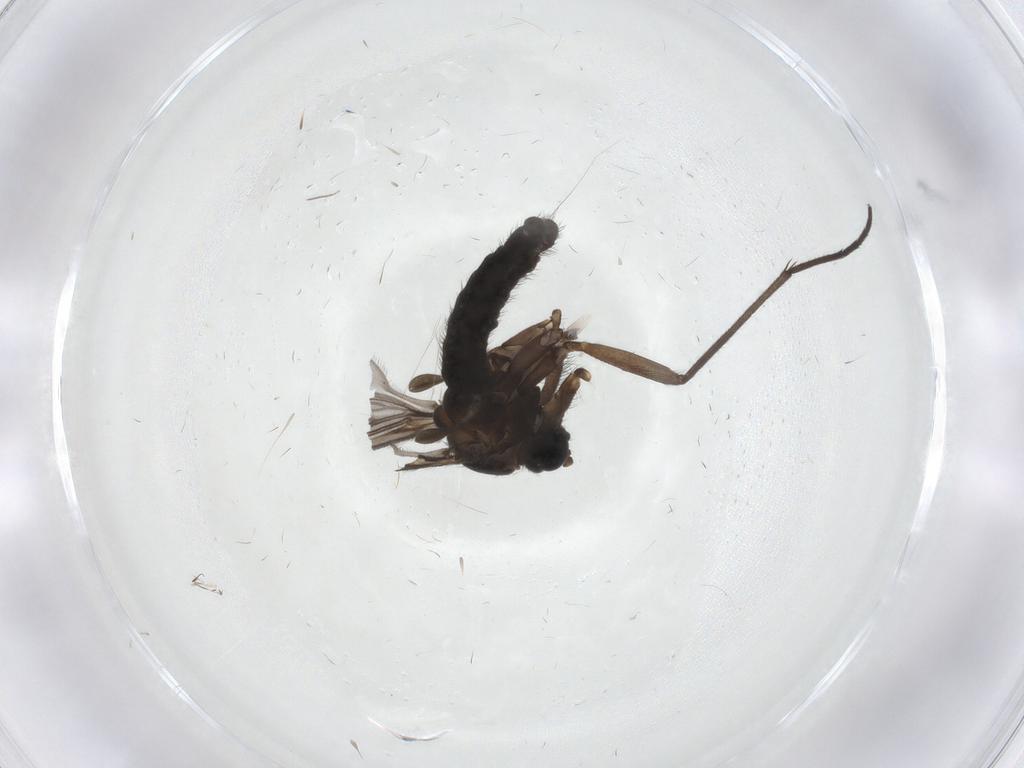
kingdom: Animalia
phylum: Arthropoda
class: Insecta
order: Diptera
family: Sciaridae
